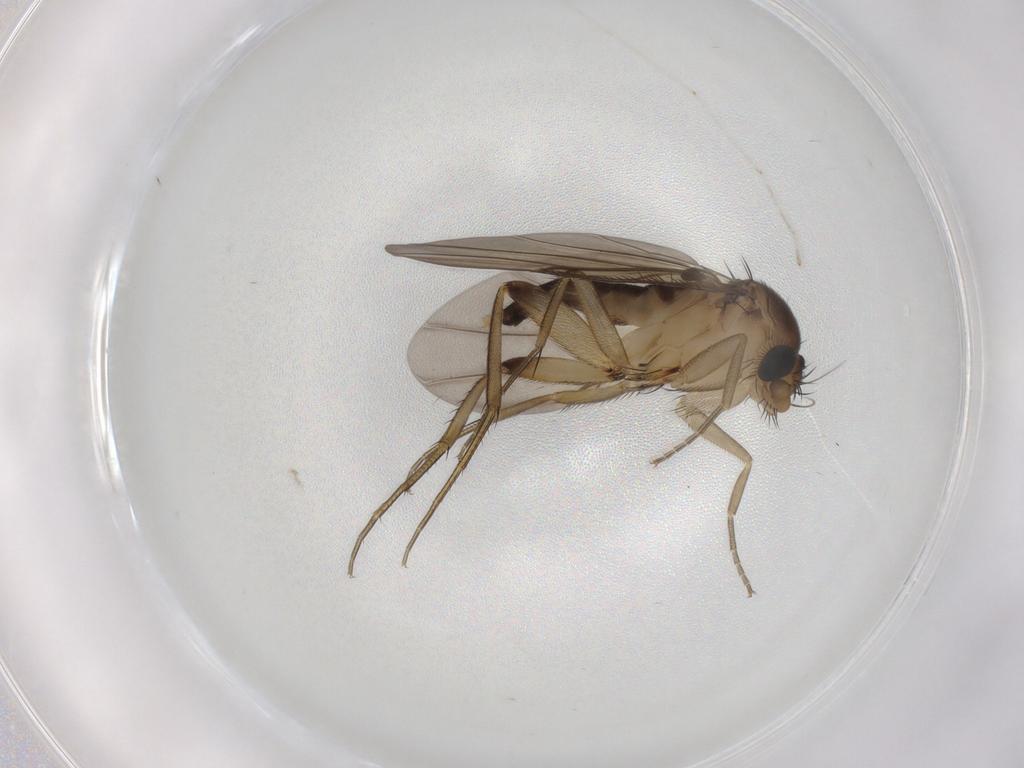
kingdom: Animalia
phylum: Arthropoda
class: Insecta
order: Diptera
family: Phoridae
